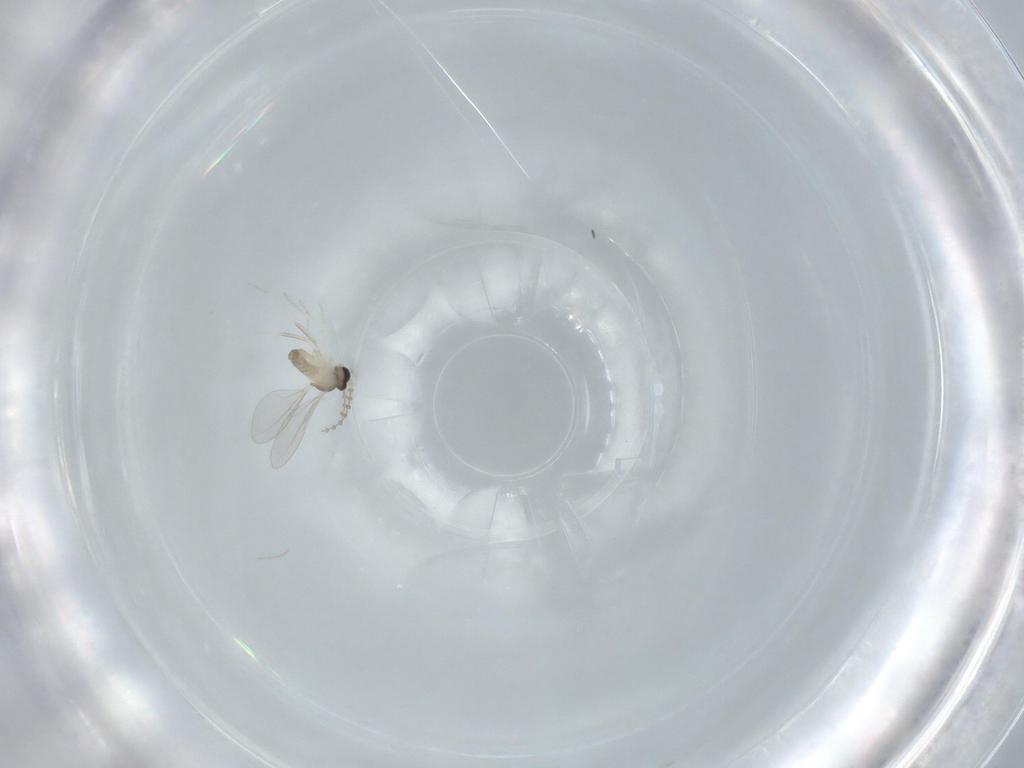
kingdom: Animalia
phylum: Arthropoda
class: Insecta
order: Diptera
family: Cecidomyiidae
